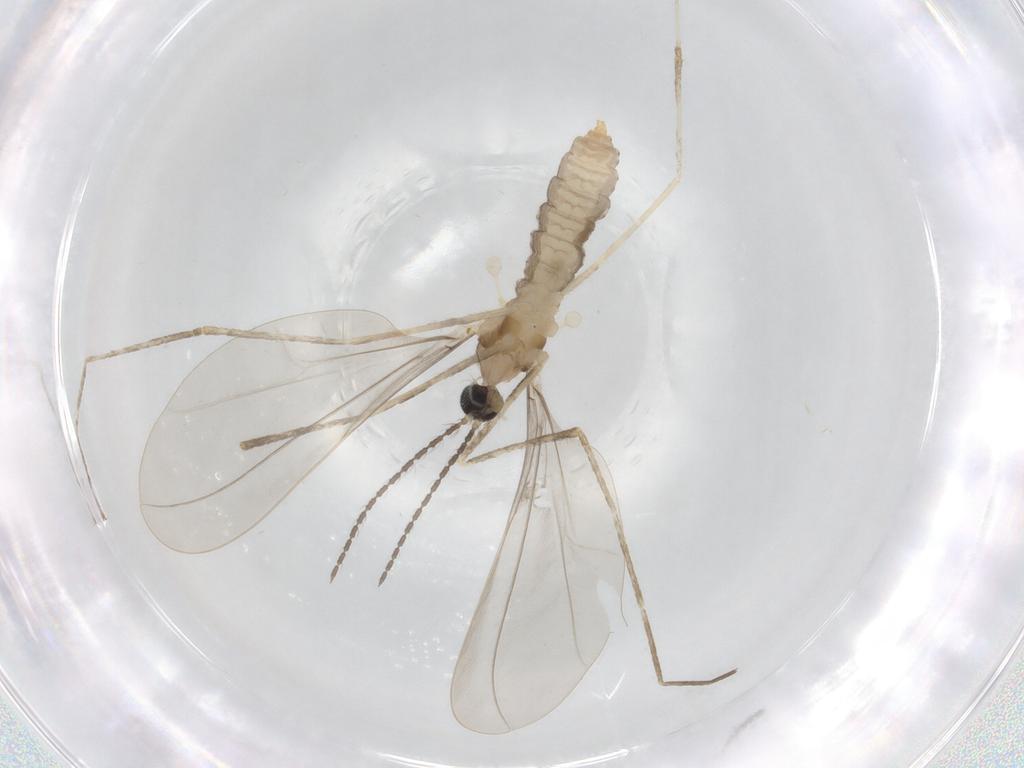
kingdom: Animalia
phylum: Arthropoda
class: Insecta
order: Diptera
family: Cecidomyiidae
